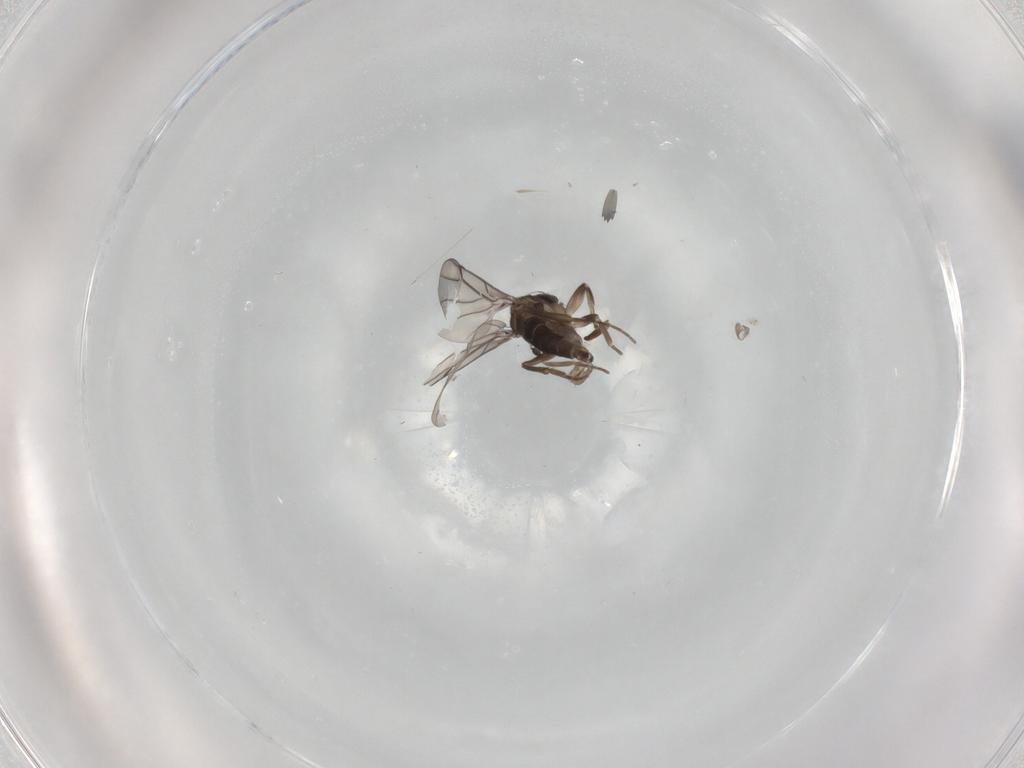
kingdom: Animalia
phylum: Arthropoda
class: Insecta
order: Diptera
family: Phoridae
